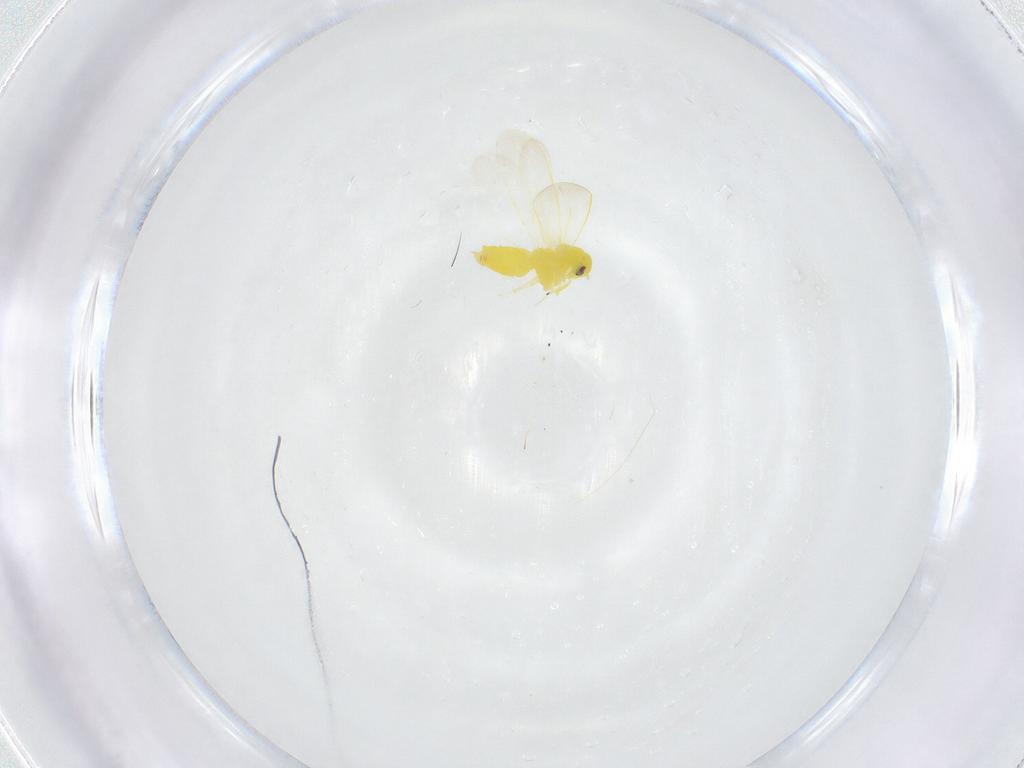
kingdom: Animalia
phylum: Arthropoda
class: Insecta
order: Hemiptera
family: Aleyrodidae
